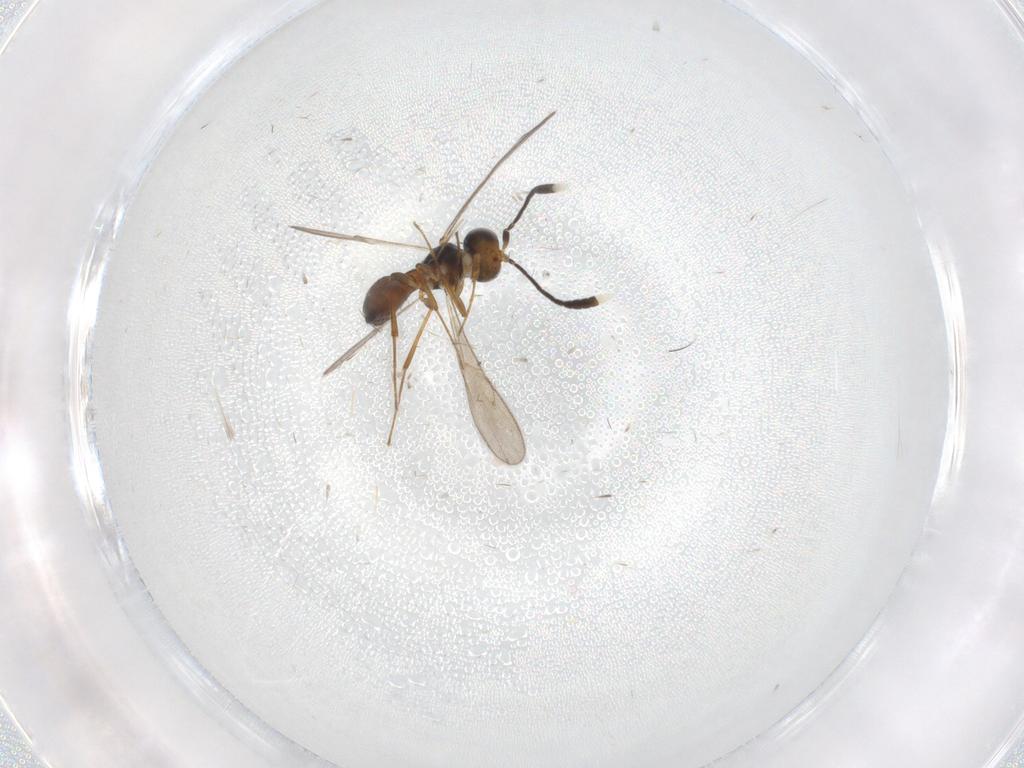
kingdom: Animalia
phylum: Arthropoda
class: Insecta
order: Hymenoptera
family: Scelionidae
